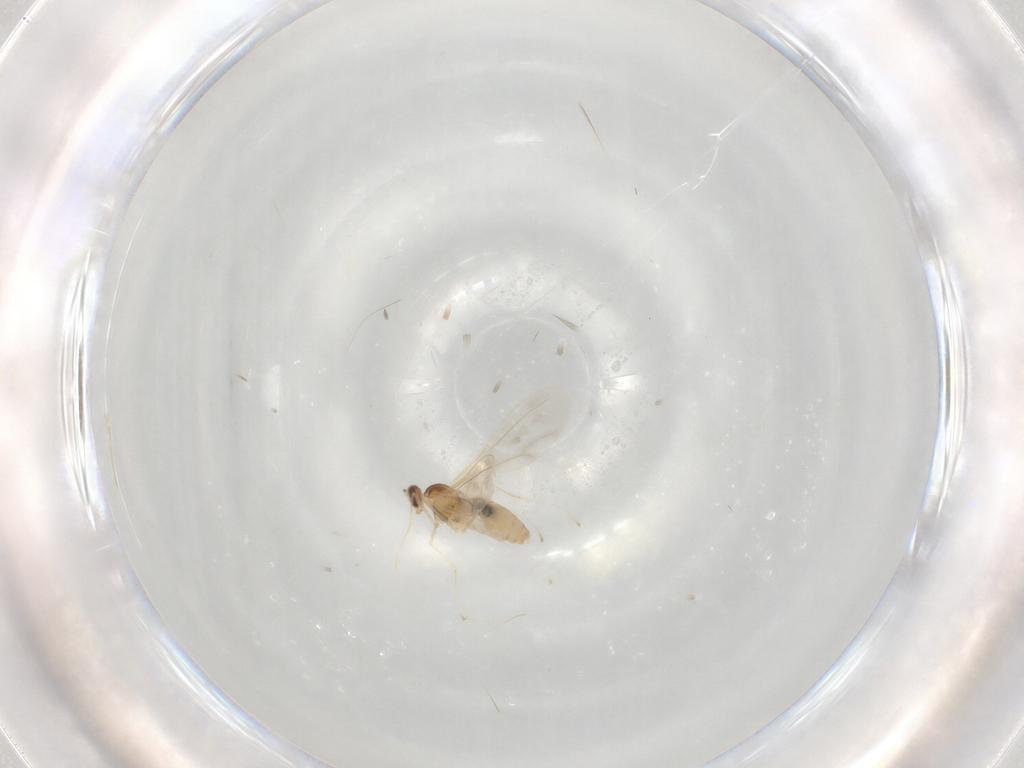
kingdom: Animalia
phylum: Arthropoda
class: Insecta
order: Diptera
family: Cecidomyiidae
